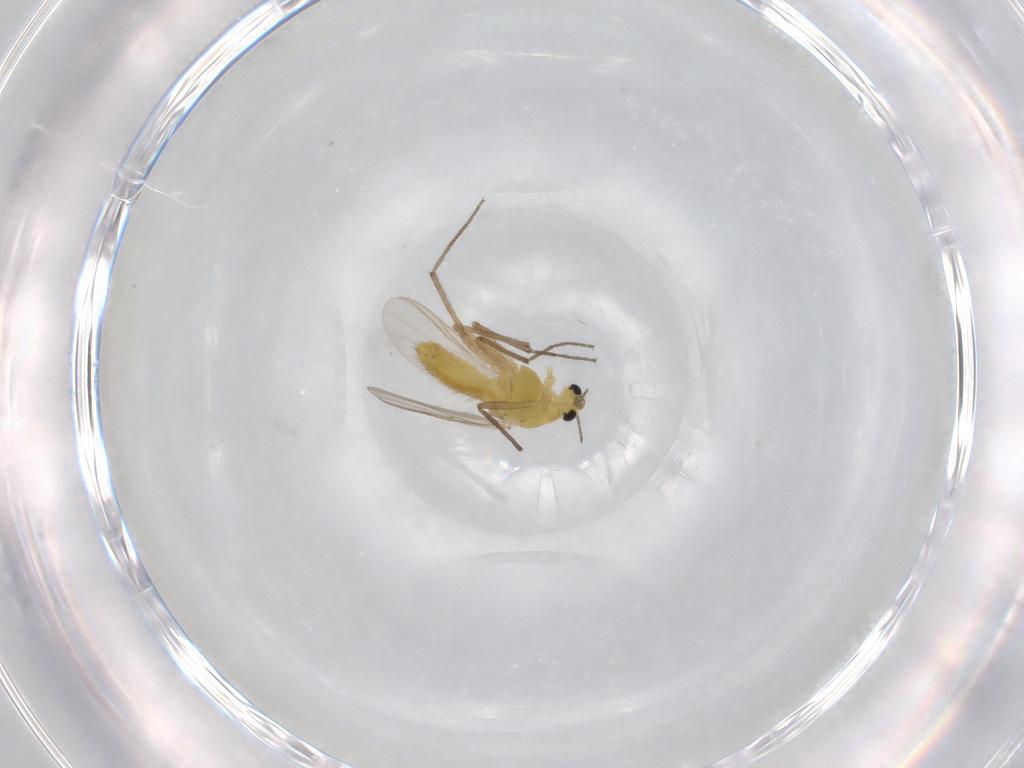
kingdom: Animalia
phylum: Arthropoda
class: Insecta
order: Diptera
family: Chironomidae
